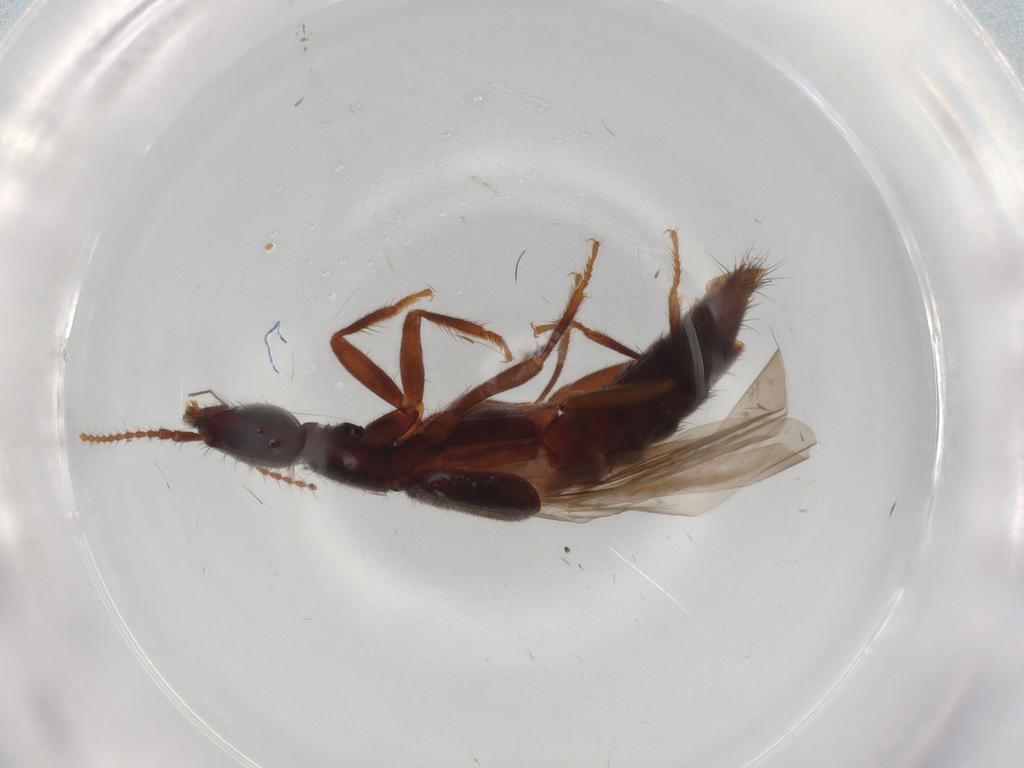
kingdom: Animalia
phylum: Arthropoda
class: Insecta
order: Coleoptera
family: Staphylinidae
